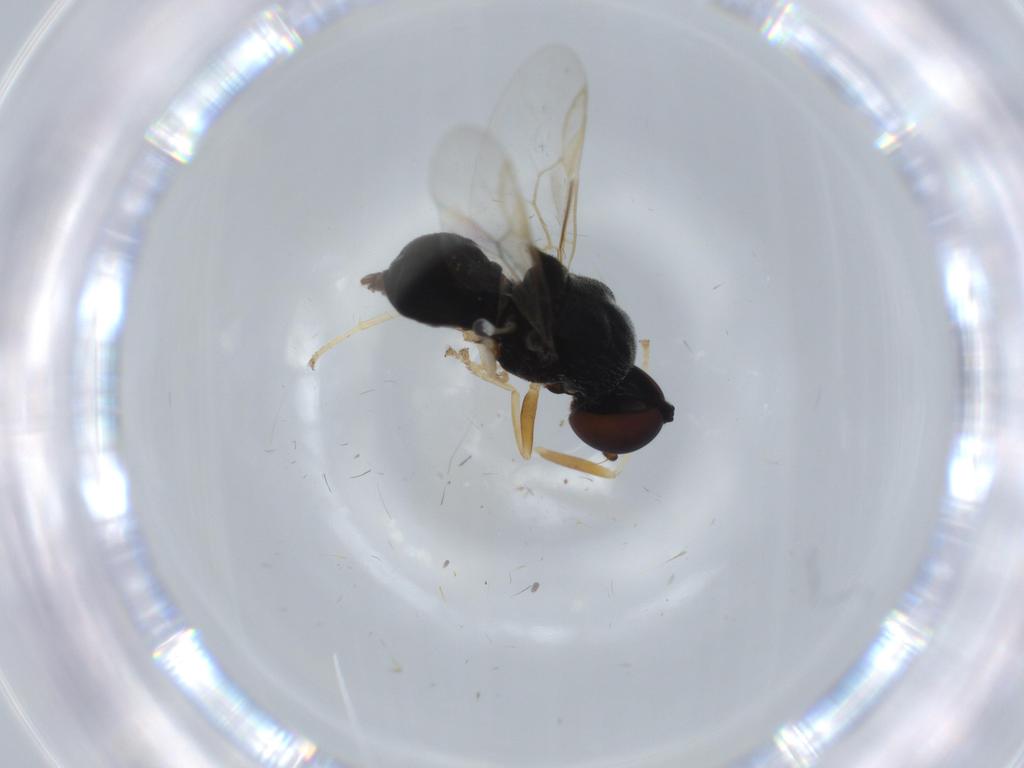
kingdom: Animalia
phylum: Arthropoda
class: Insecta
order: Diptera
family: Stratiomyidae
